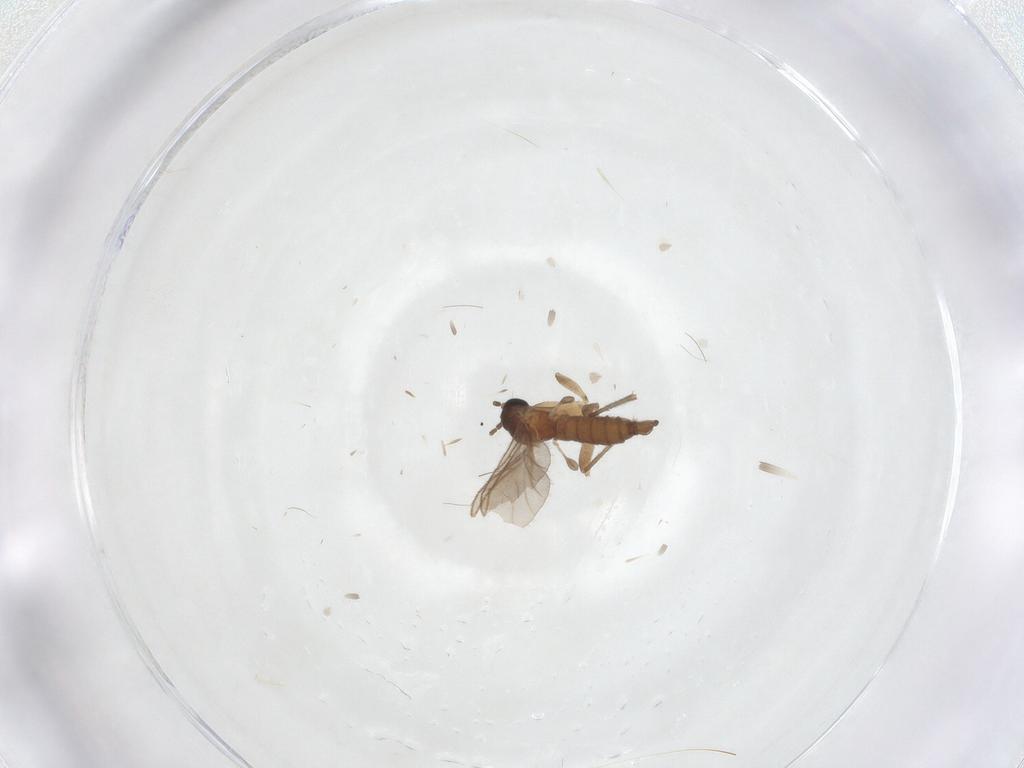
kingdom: Animalia
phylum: Arthropoda
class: Insecta
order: Diptera
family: Sciaridae
